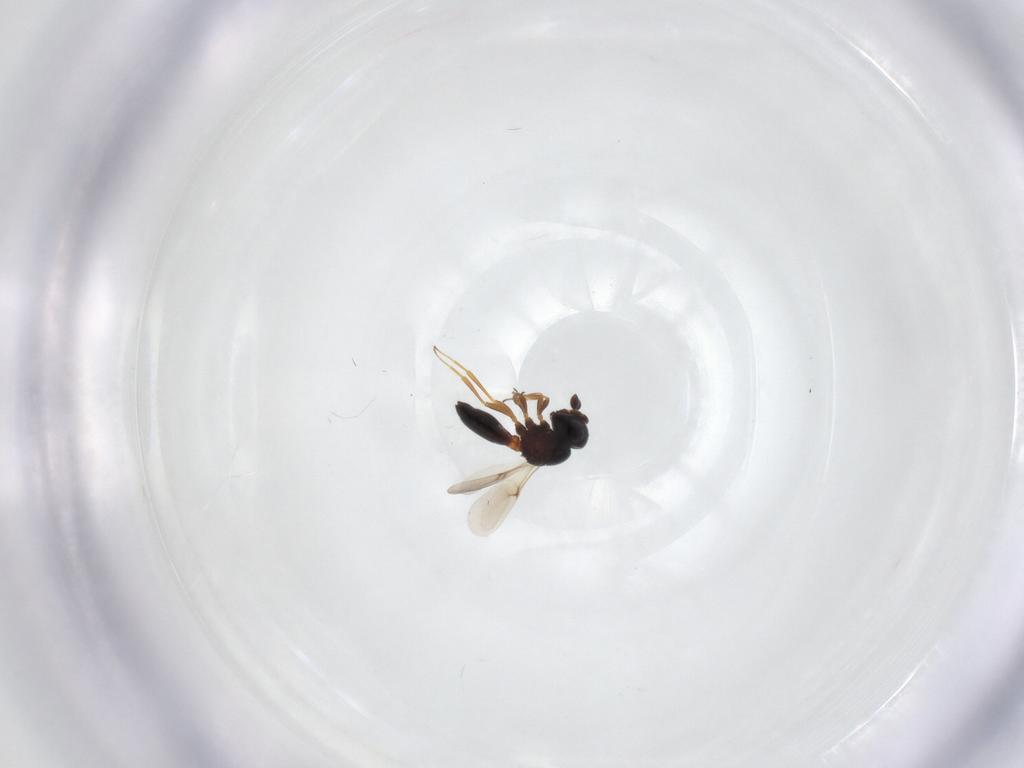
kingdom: Animalia
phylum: Arthropoda
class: Insecta
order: Hymenoptera
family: Scelionidae
